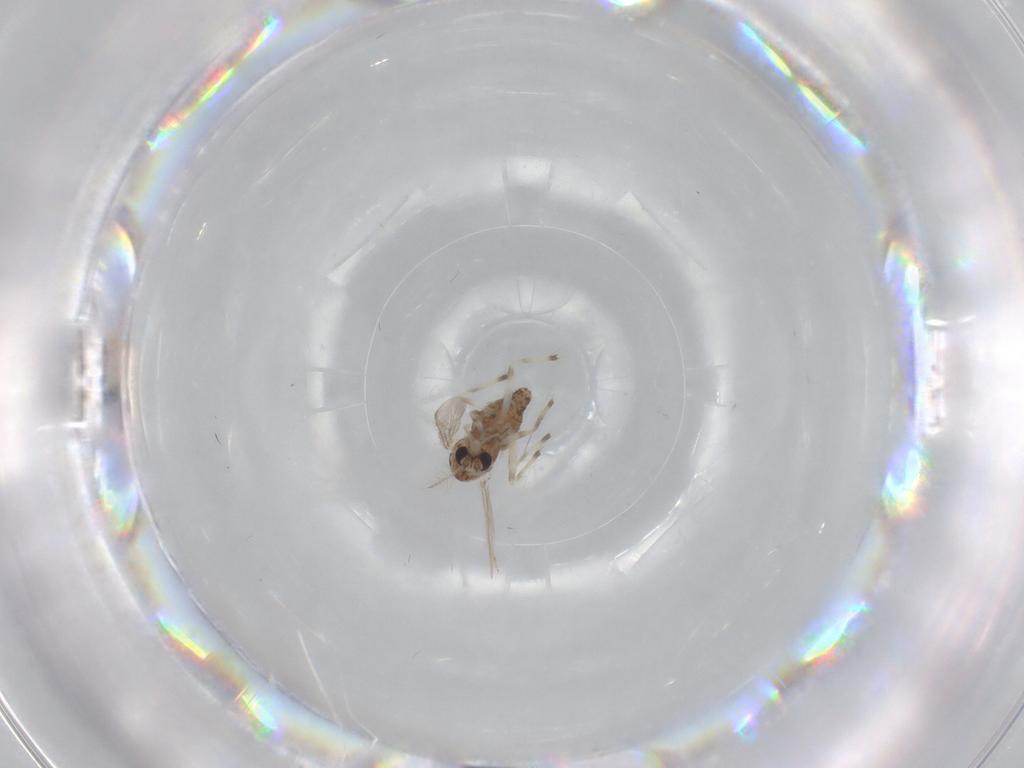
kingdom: Animalia
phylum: Arthropoda
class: Insecta
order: Diptera
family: Chironomidae
